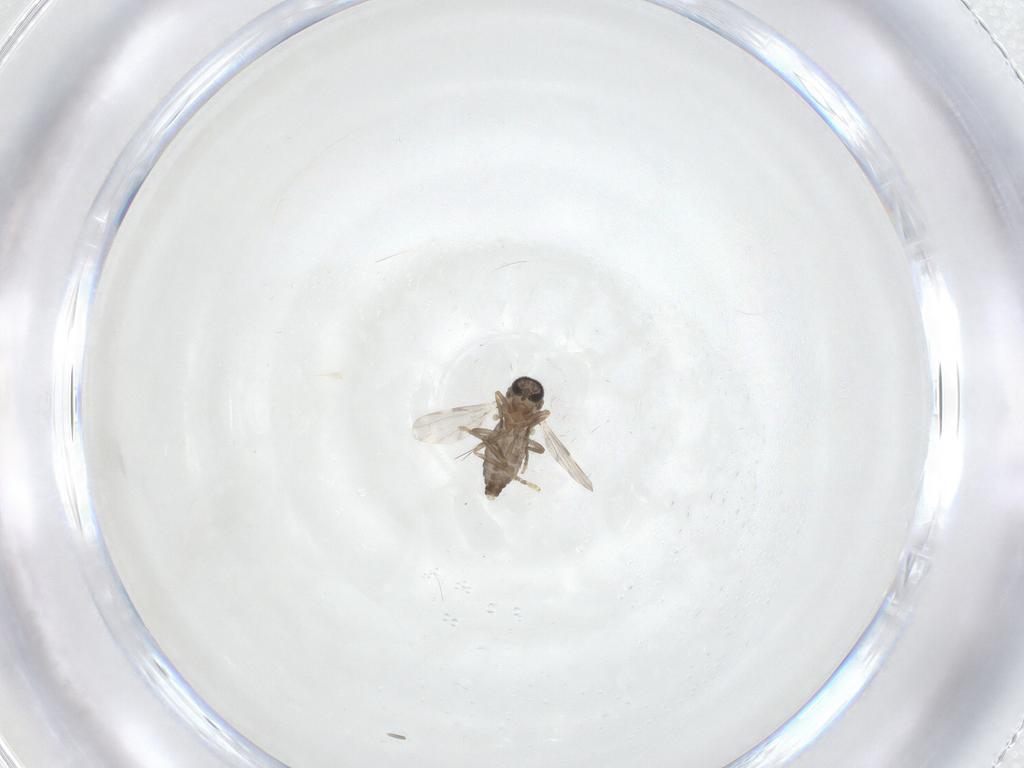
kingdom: Animalia
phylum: Arthropoda
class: Insecta
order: Diptera
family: Ceratopogonidae
